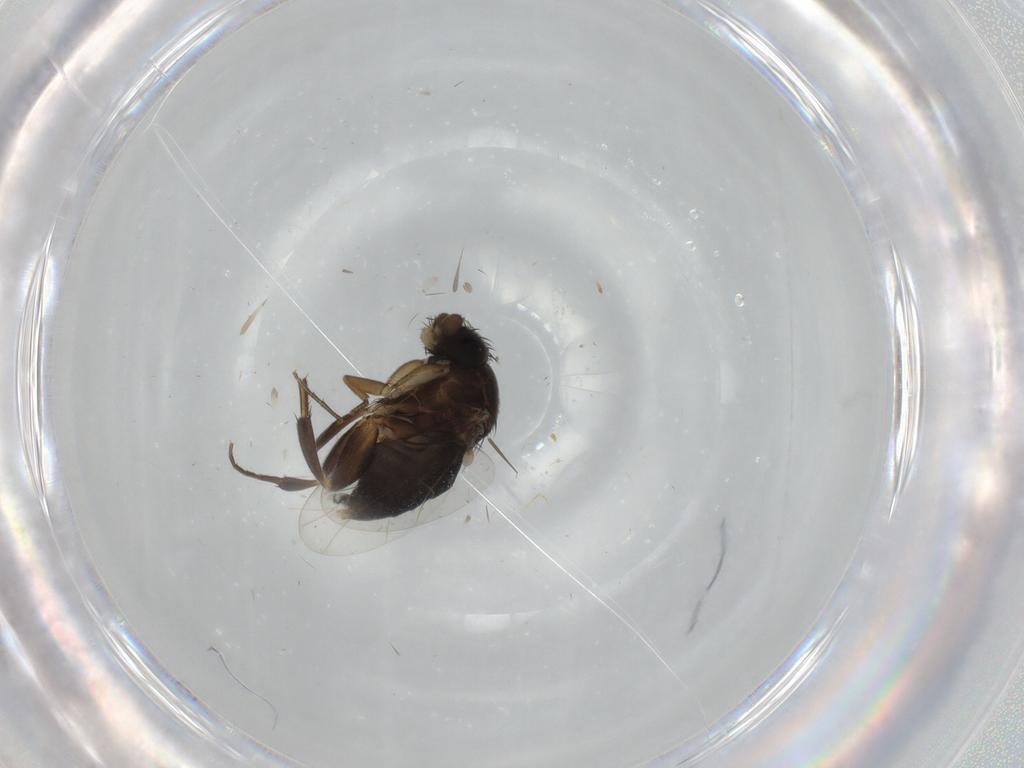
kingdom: Animalia
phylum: Arthropoda
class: Insecta
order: Diptera
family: Phoridae
